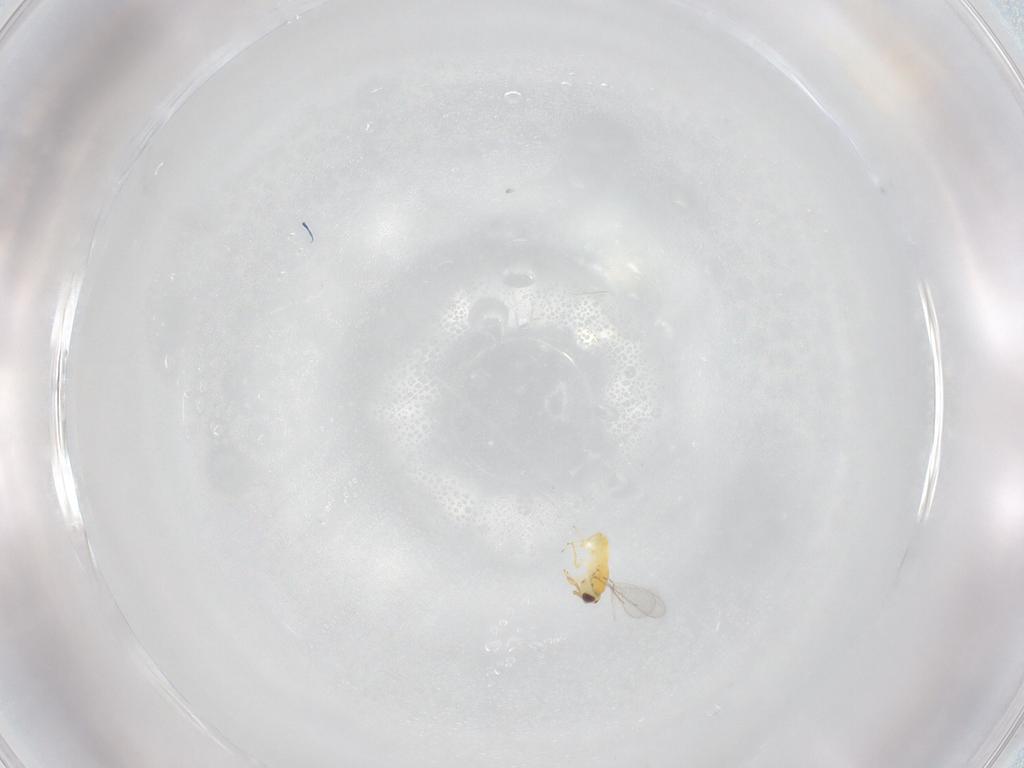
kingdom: Animalia
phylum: Arthropoda
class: Insecta
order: Hymenoptera
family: Aphelinidae
